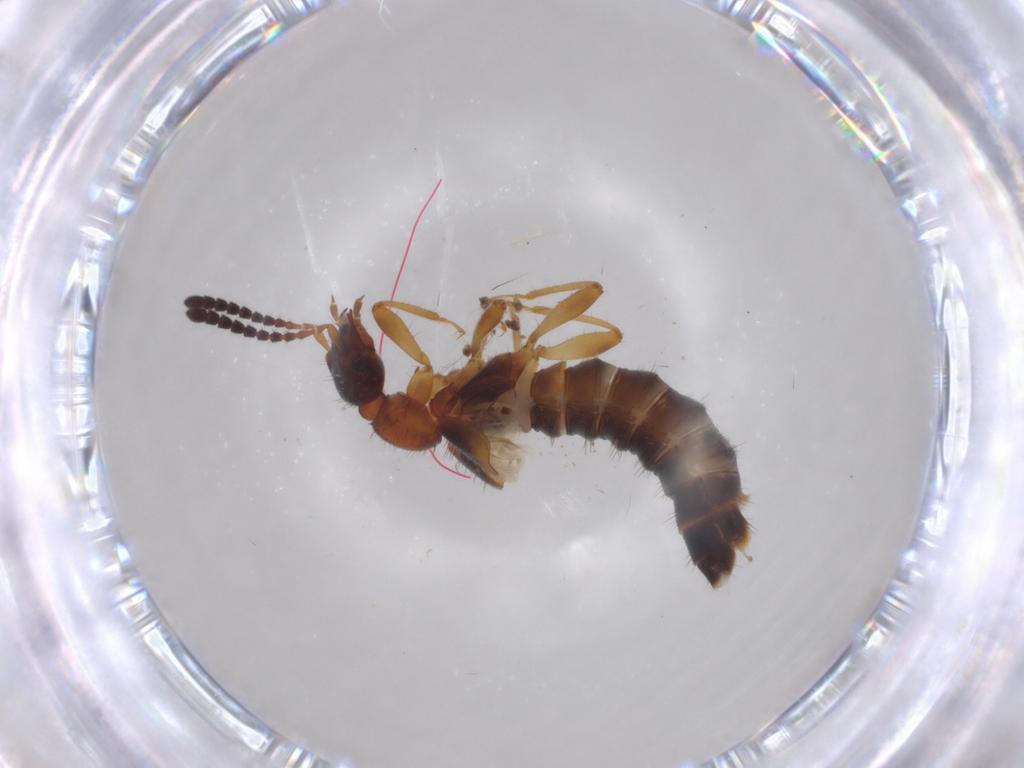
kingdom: Animalia
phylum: Arthropoda
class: Insecta
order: Coleoptera
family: Staphylinidae
